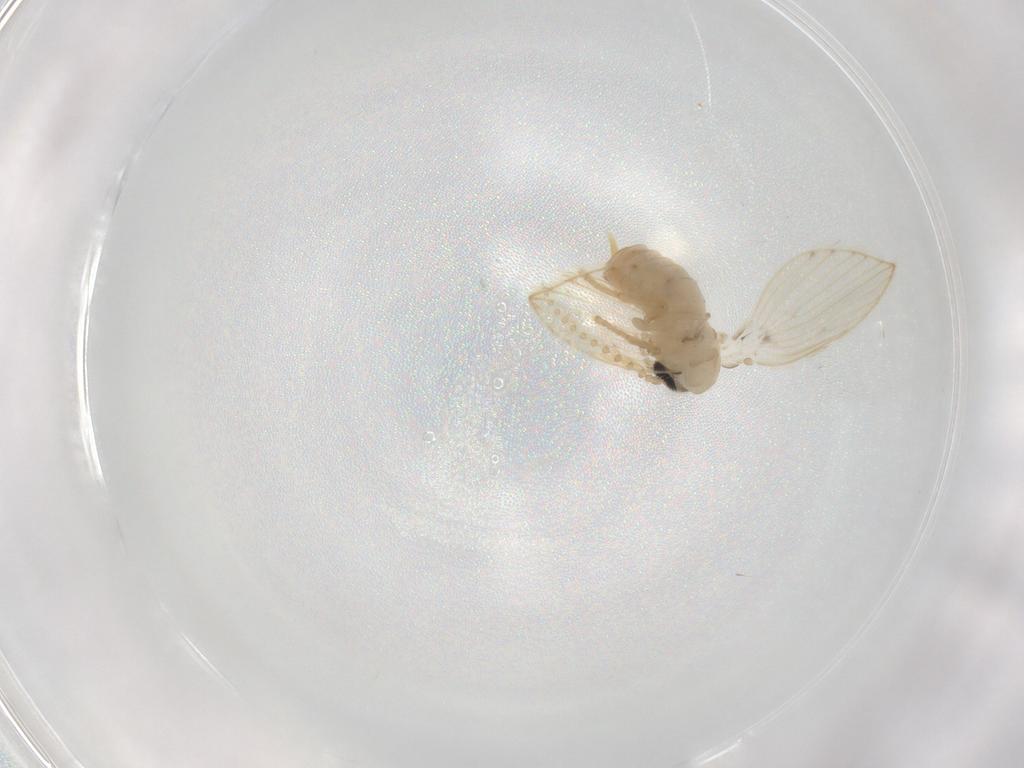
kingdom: Animalia
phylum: Arthropoda
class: Insecta
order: Diptera
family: Psychodidae
